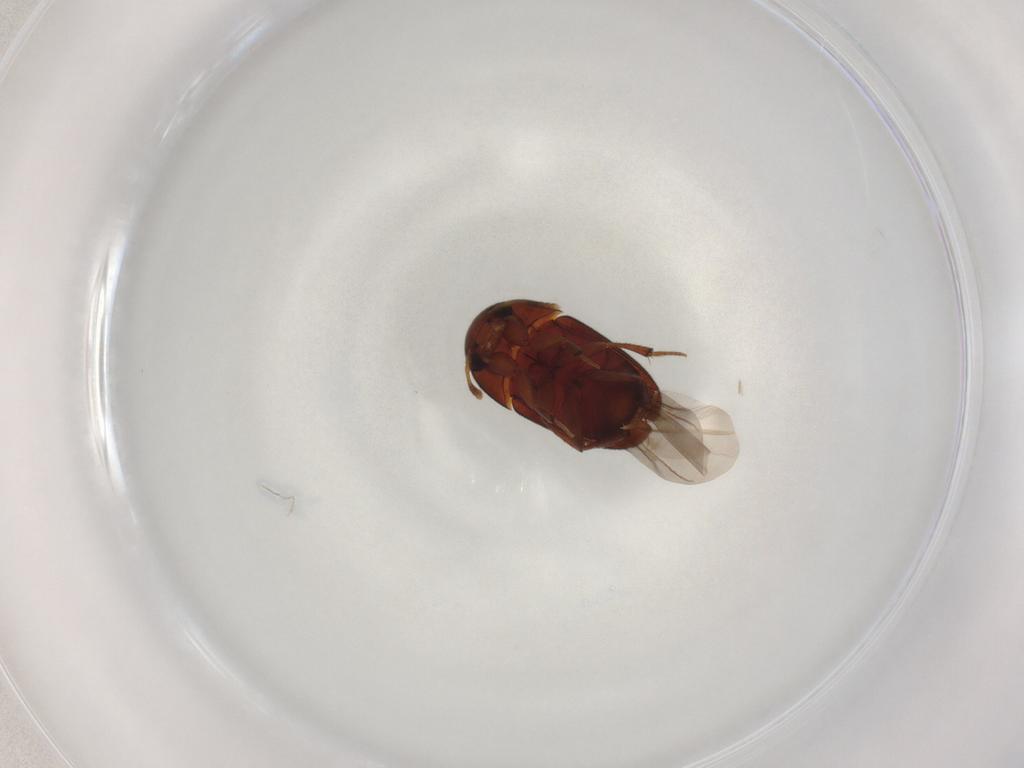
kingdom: Animalia
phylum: Arthropoda
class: Insecta
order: Coleoptera
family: Leiodidae
